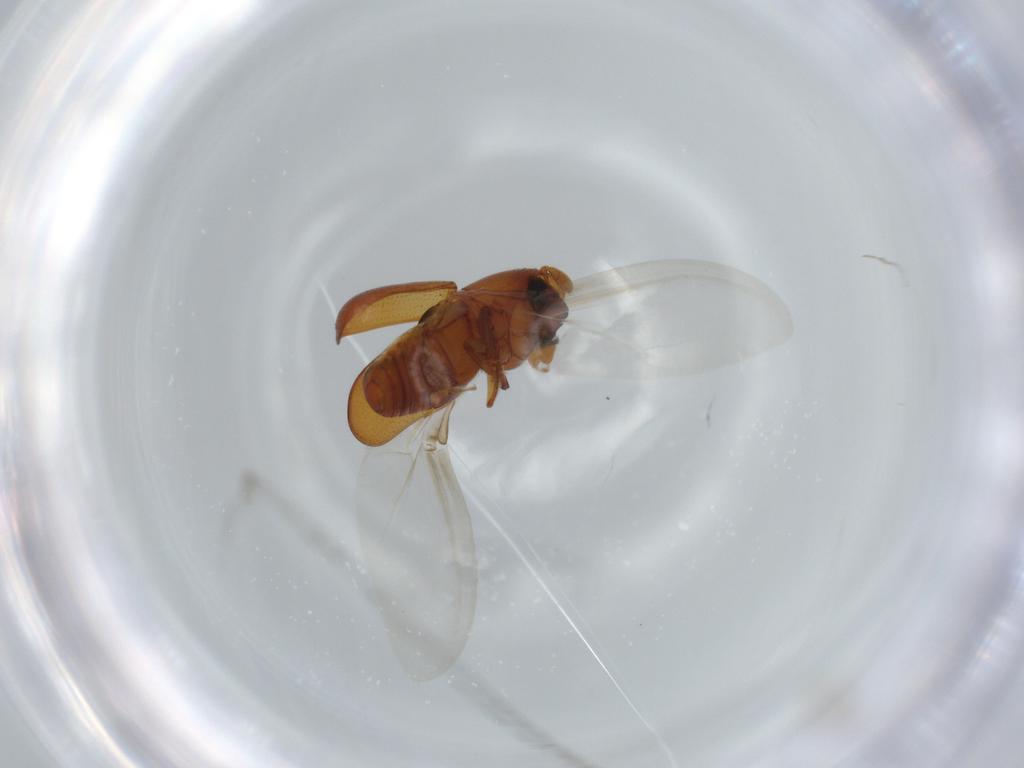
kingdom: Animalia
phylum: Arthropoda
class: Insecta
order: Coleoptera
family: Curculionidae
